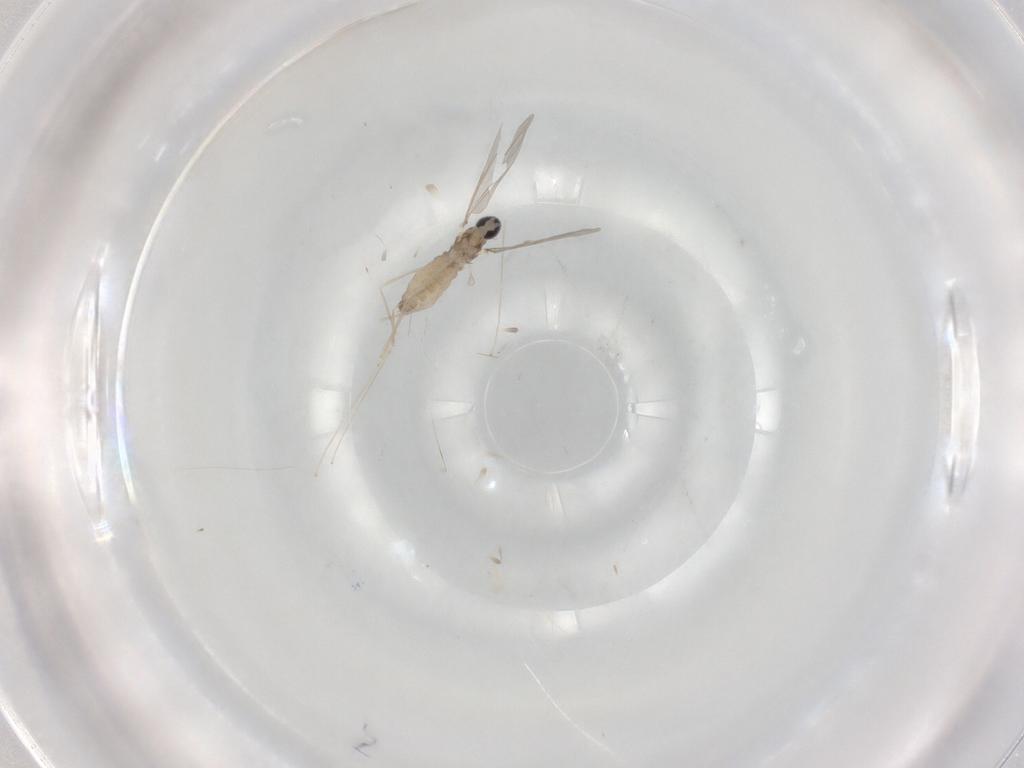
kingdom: Animalia
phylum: Arthropoda
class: Insecta
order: Diptera
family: Cecidomyiidae
